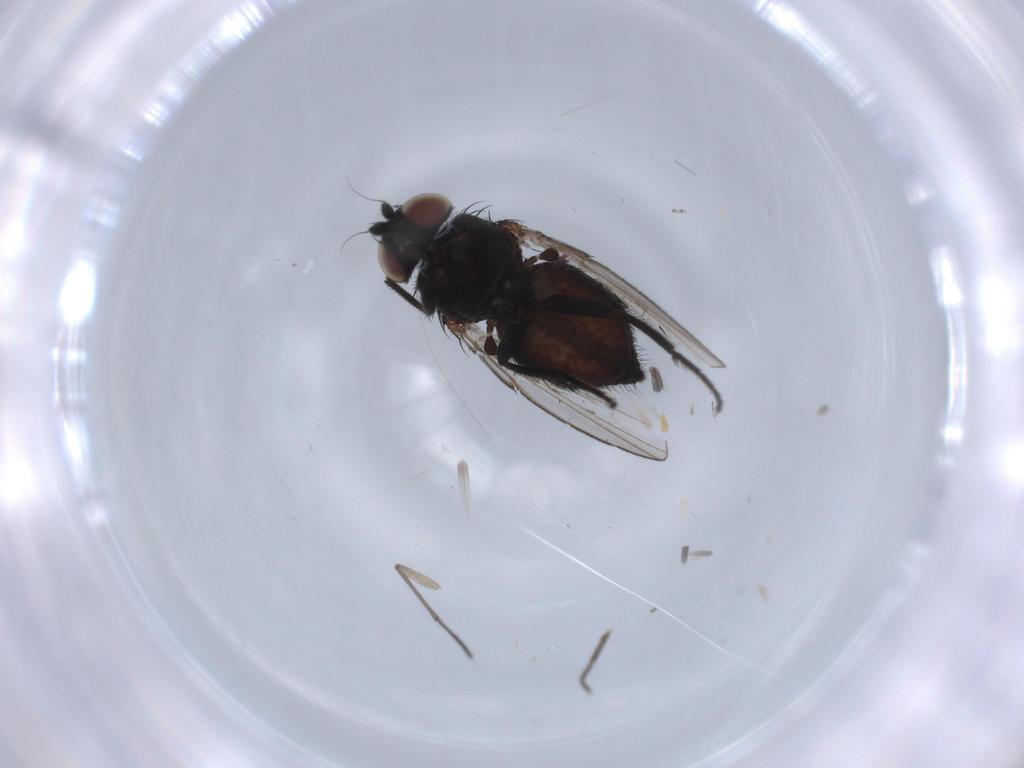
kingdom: Animalia
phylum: Arthropoda
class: Insecta
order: Diptera
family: Milichiidae
